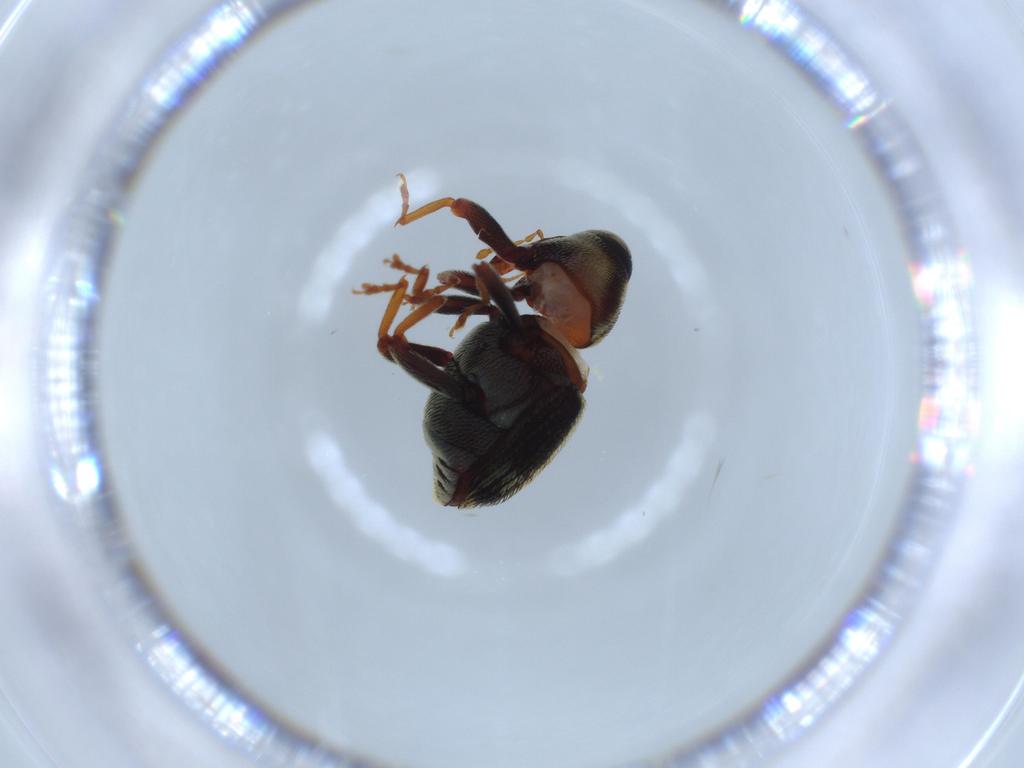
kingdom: Animalia
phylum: Arthropoda
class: Insecta
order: Coleoptera
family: Curculionidae
